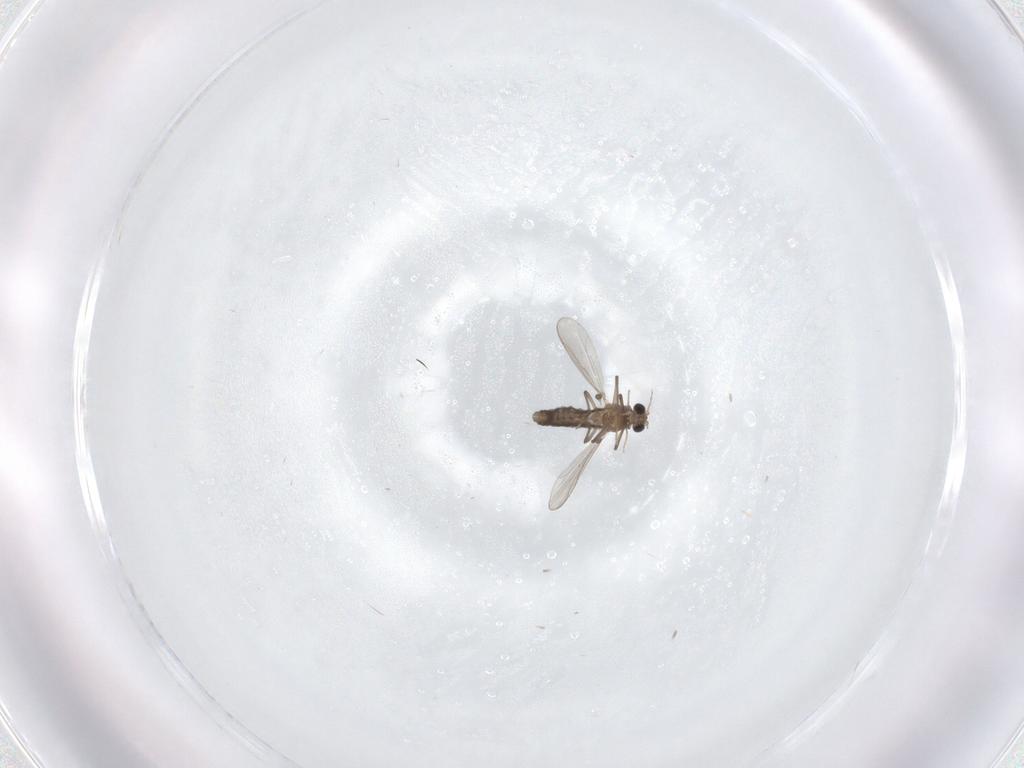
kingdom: Animalia
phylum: Arthropoda
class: Insecta
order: Diptera
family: Chironomidae
